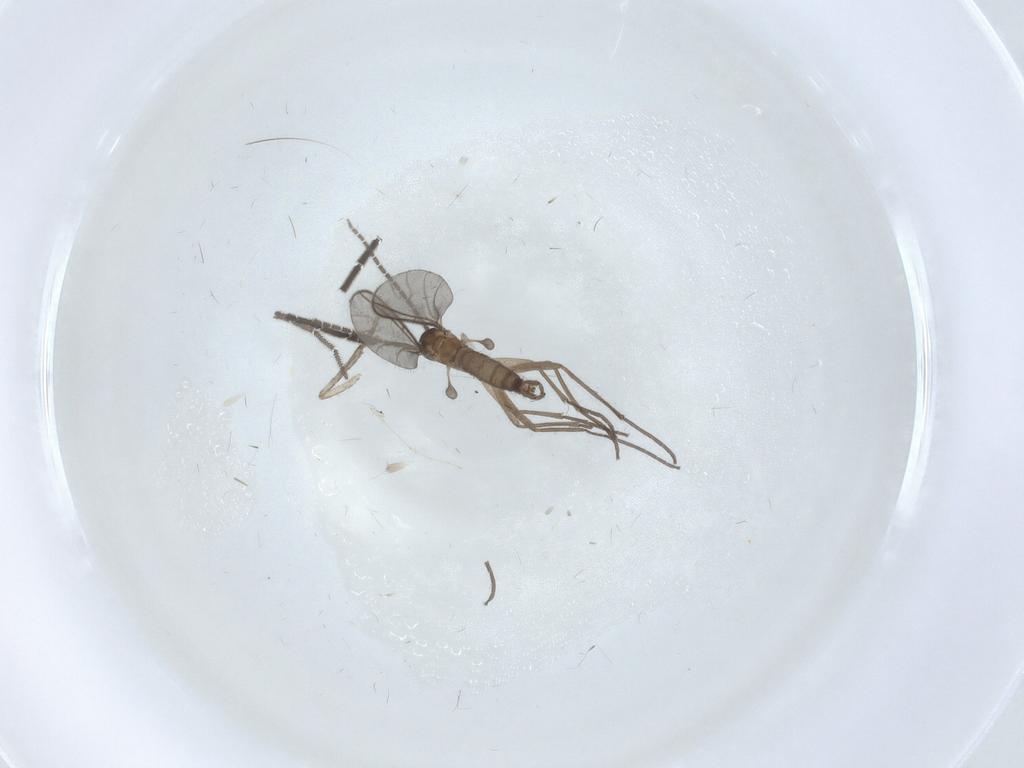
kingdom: Animalia
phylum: Arthropoda
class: Insecta
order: Diptera
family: Sciaridae
